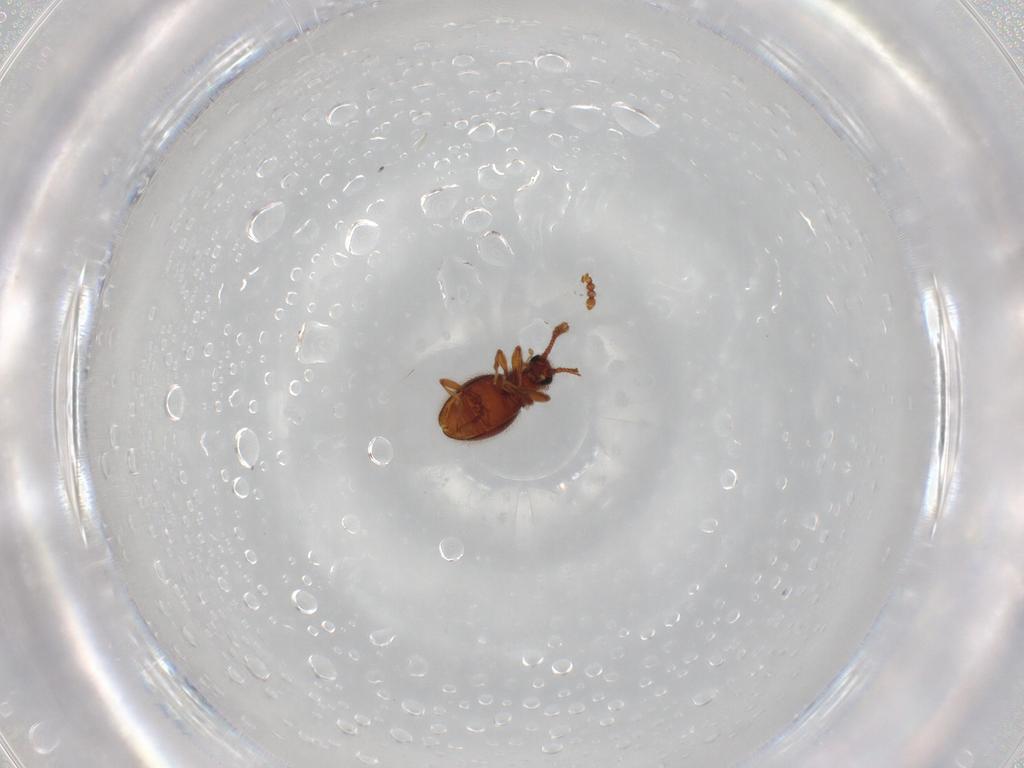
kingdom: Animalia
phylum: Arthropoda
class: Insecta
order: Coleoptera
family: Staphylinidae
